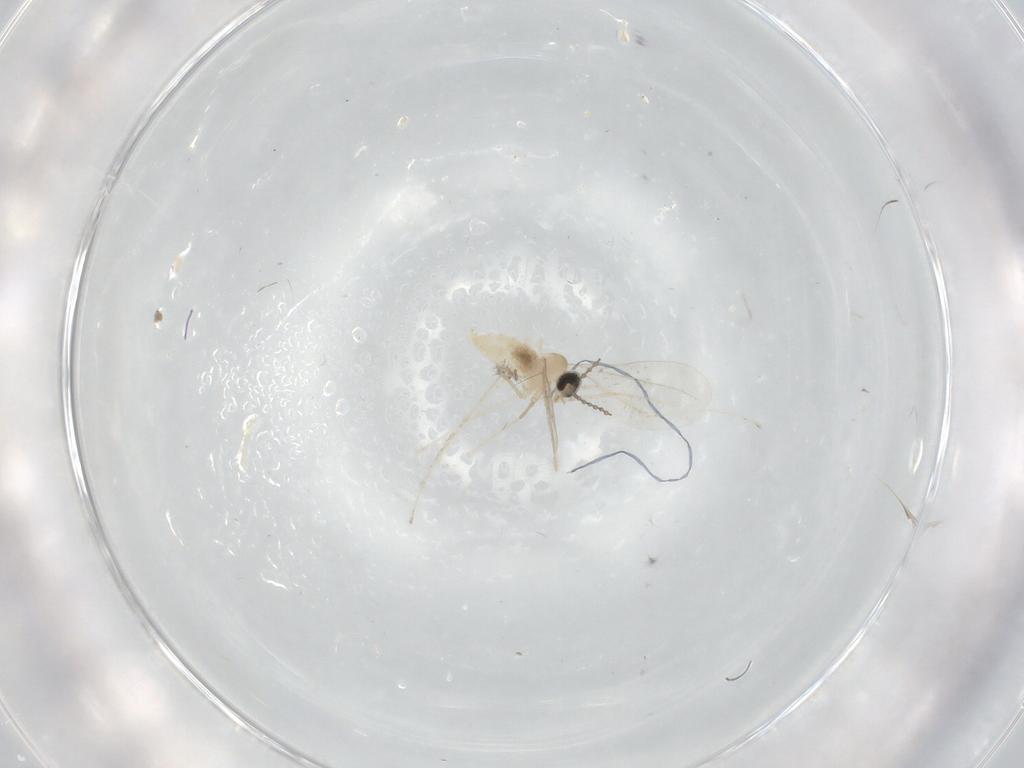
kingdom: Animalia
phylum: Arthropoda
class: Insecta
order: Diptera
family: Cecidomyiidae
